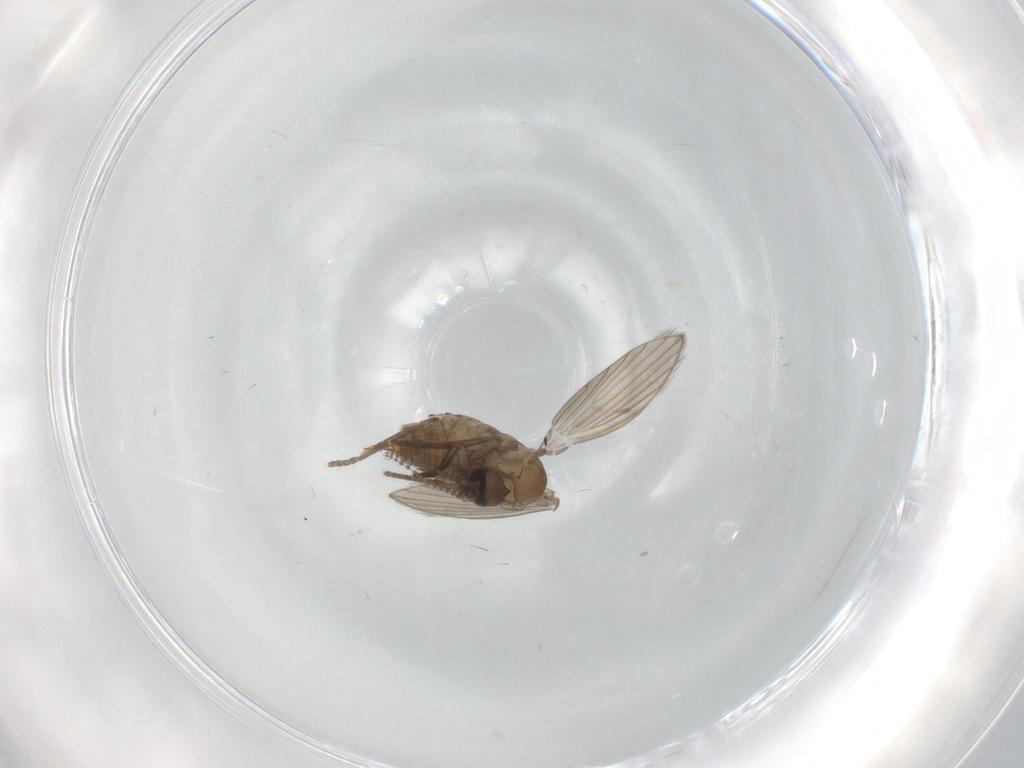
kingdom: Animalia
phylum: Arthropoda
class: Insecta
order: Diptera
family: Cecidomyiidae
